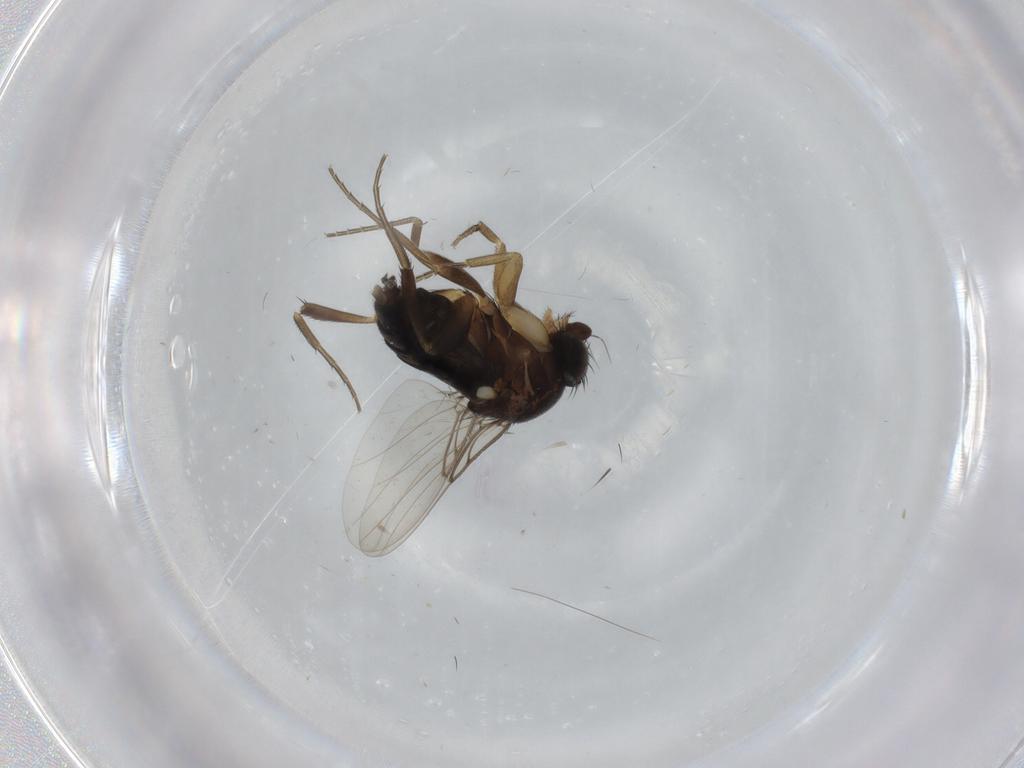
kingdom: Animalia
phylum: Arthropoda
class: Insecta
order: Diptera
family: Phoridae
